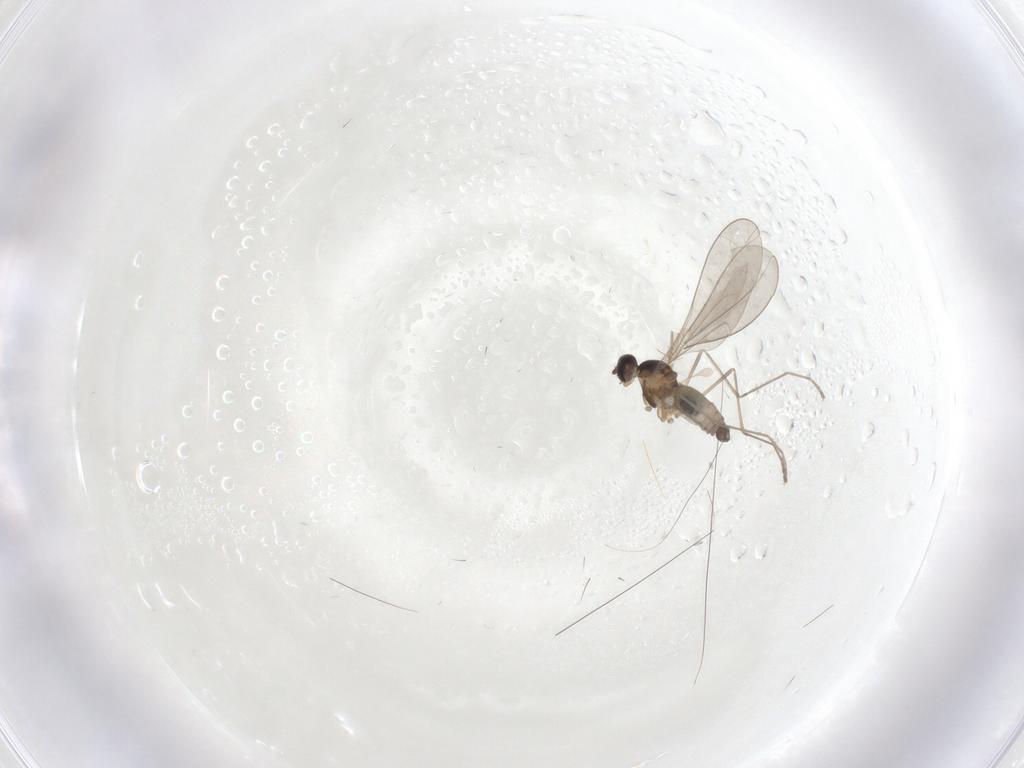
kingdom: Animalia
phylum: Arthropoda
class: Insecta
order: Diptera
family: Cecidomyiidae
